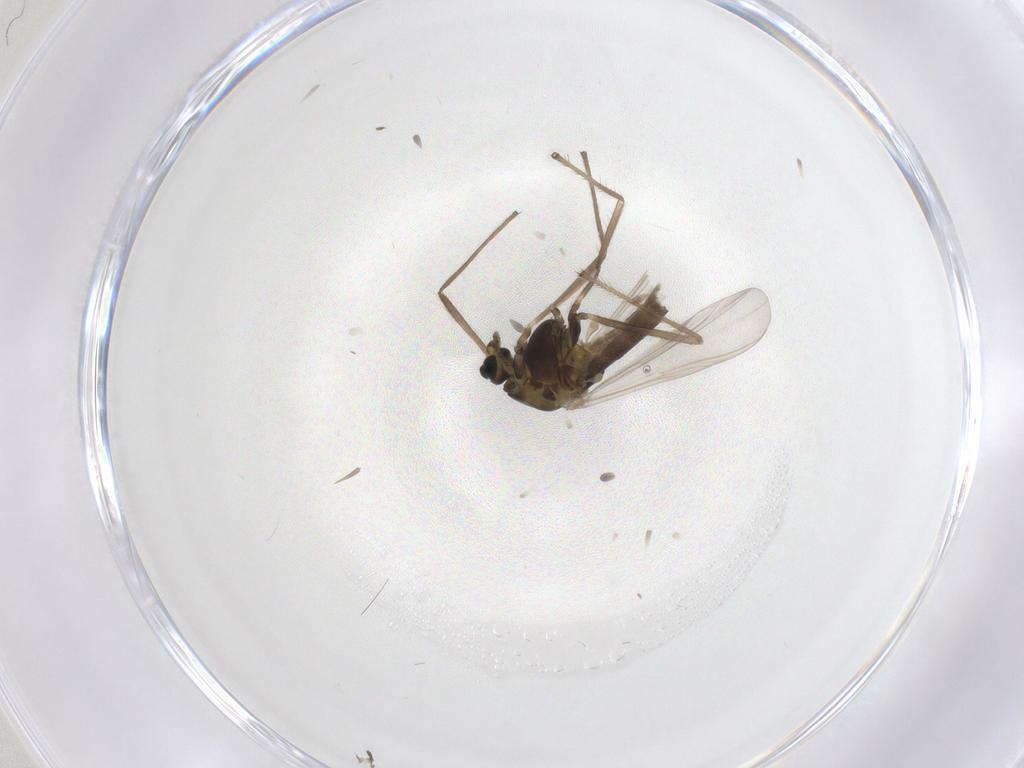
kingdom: Animalia
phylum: Arthropoda
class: Insecta
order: Diptera
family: Chironomidae
